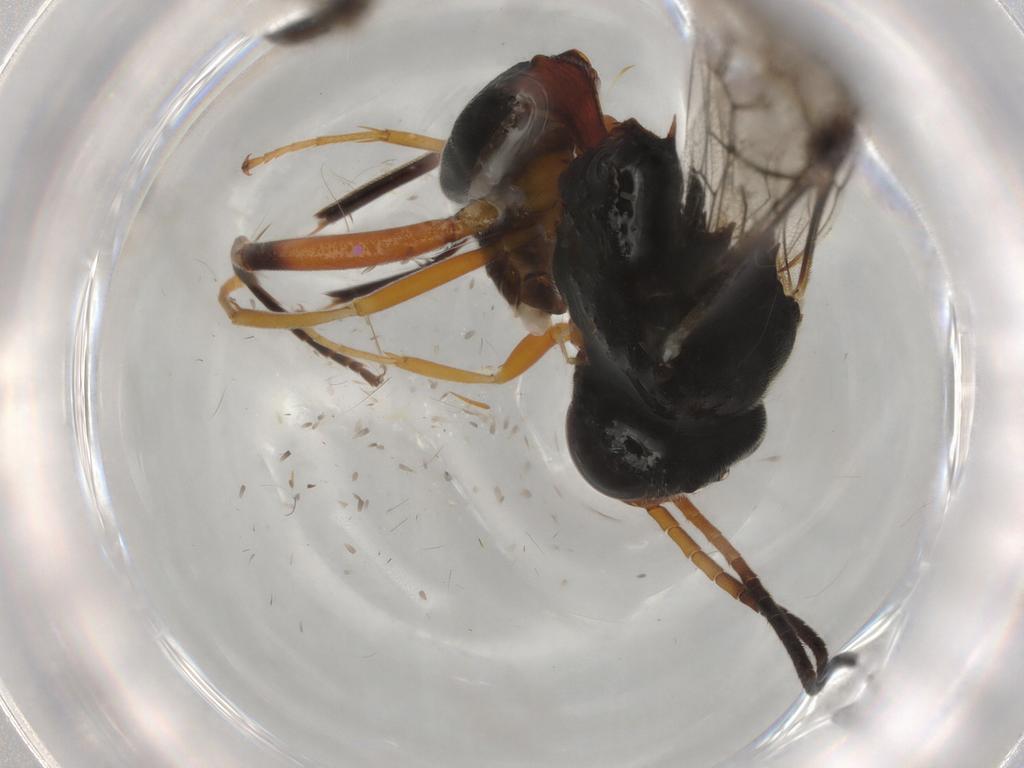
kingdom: Animalia
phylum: Arthropoda
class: Insecta
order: Hymenoptera
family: Ichneumonidae
